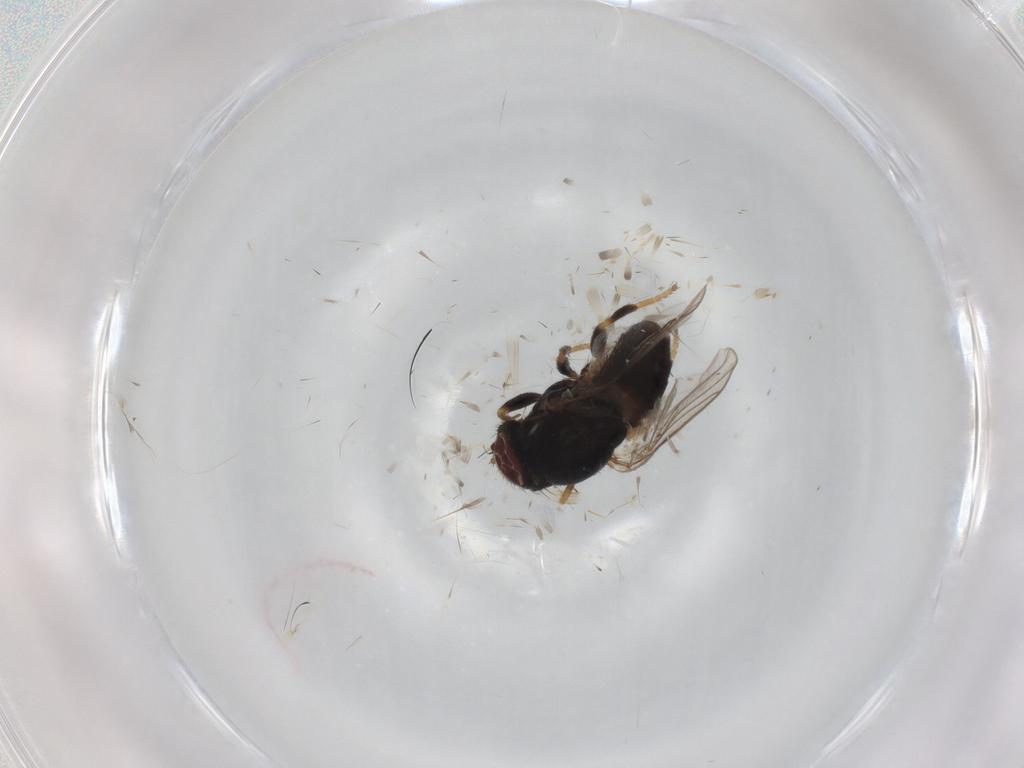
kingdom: Animalia
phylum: Arthropoda
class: Insecta
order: Diptera
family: Chloropidae
